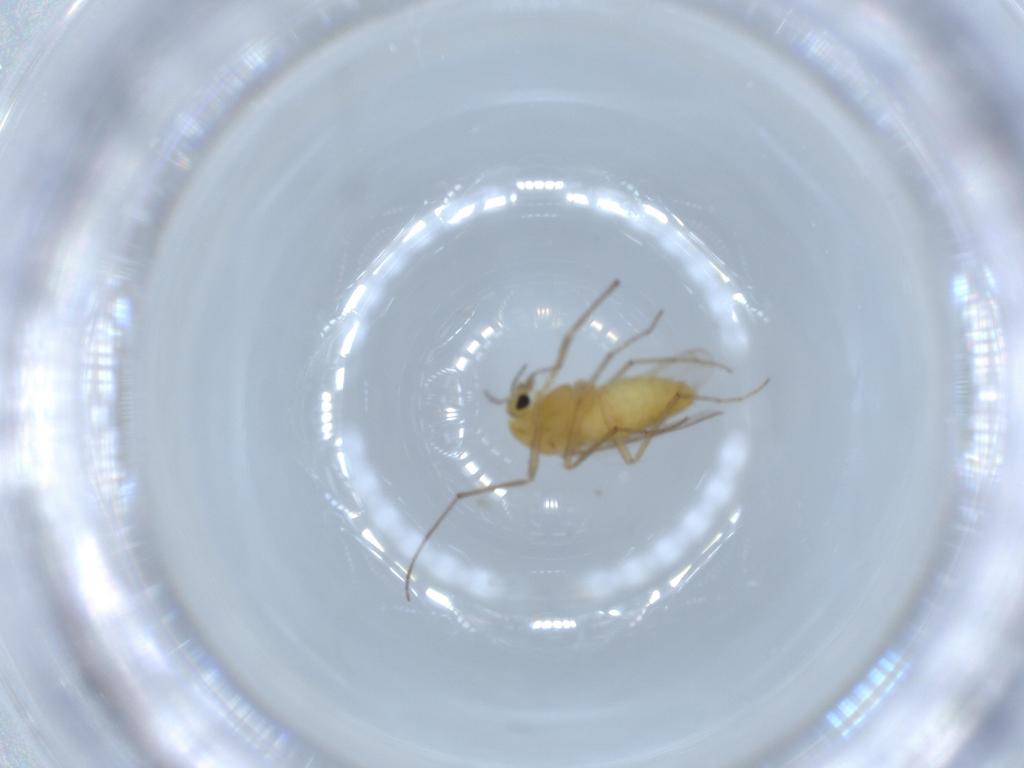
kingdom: Animalia
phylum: Arthropoda
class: Insecta
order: Diptera
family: Chironomidae
